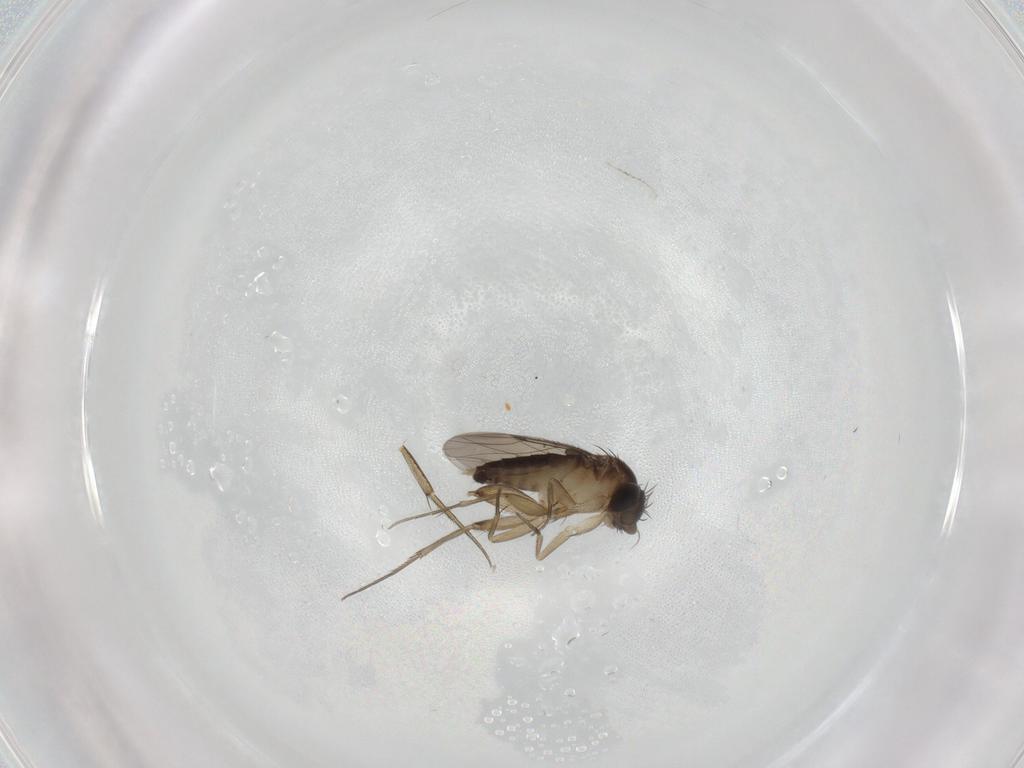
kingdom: Animalia
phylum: Arthropoda
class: Insecta
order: Diptera
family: Phoridae
